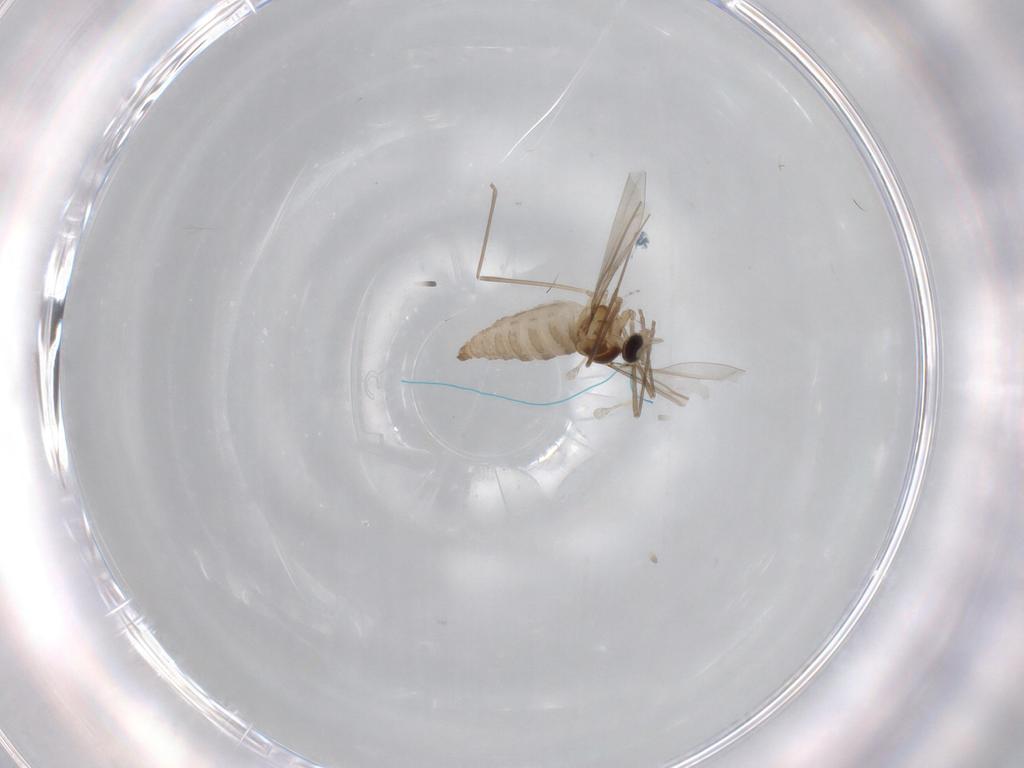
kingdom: Animalia
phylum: Arthropoda
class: Insecta
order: Diptera
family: Cecidomyiidae
